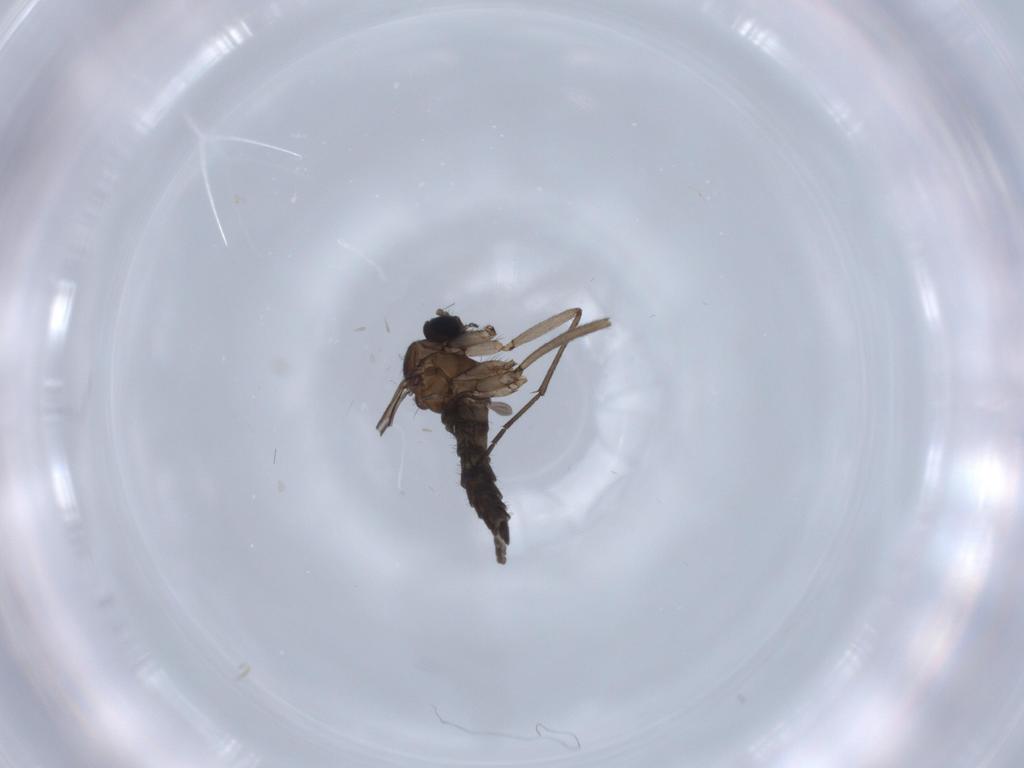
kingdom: Animalia
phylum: Arthropoda
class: Insecta
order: Diptera
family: Sciaridae
